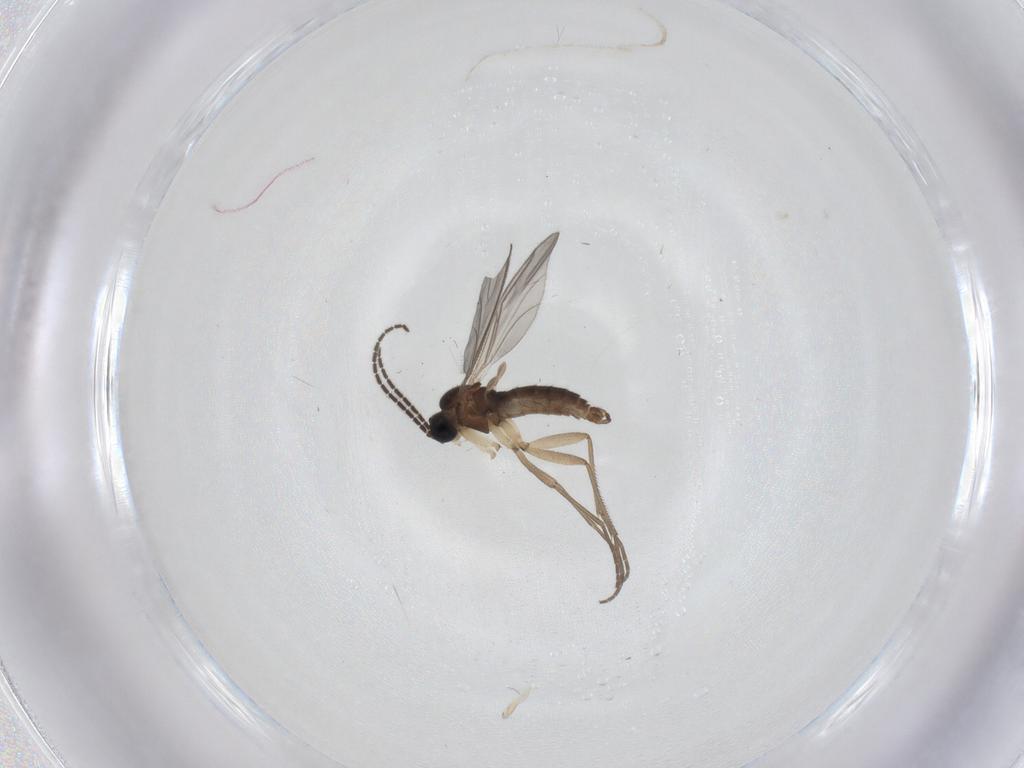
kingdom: Animalia
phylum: Arthropoda
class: Insecta
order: Diptera
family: Sciaridae
